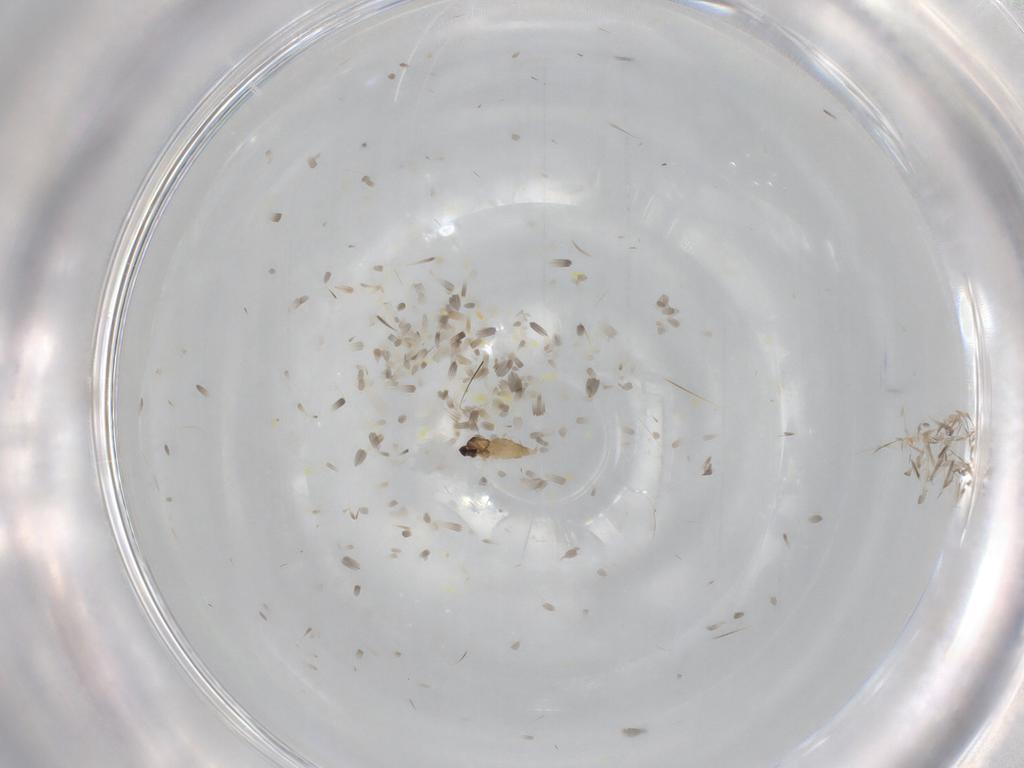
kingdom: Animalia
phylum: Arthropoda
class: Insecta
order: Diptera
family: Cecidomyiidae
